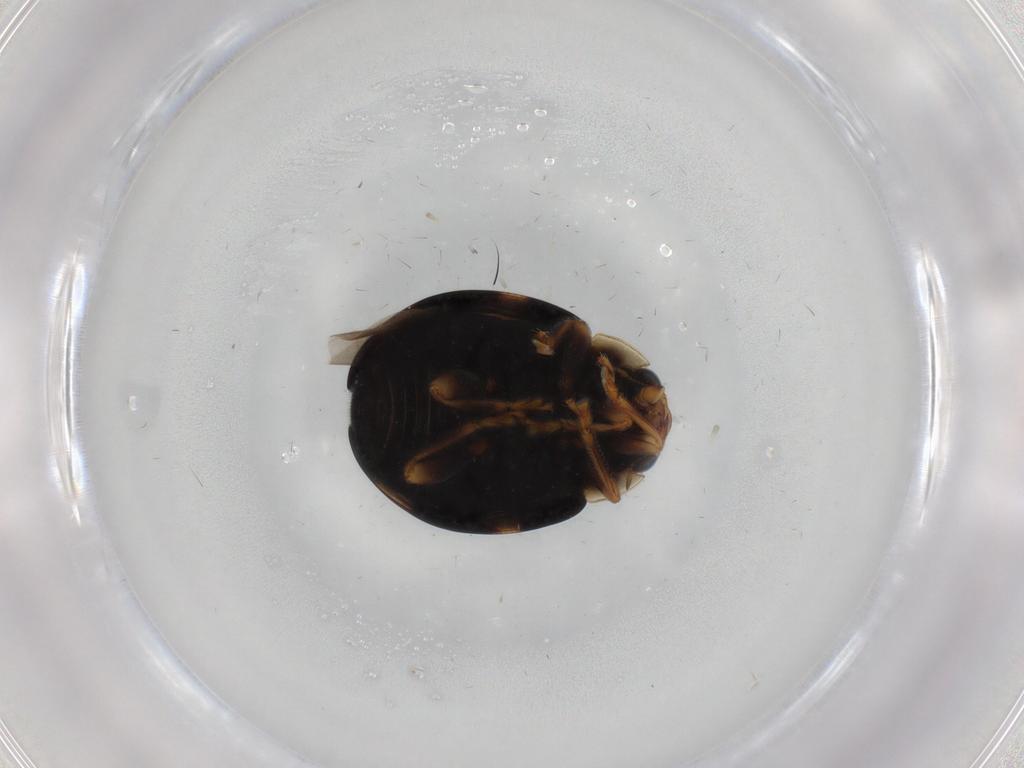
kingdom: Animalia
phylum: Arthropoda
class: Insecta
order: Coleoptera
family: Coccinellidae
